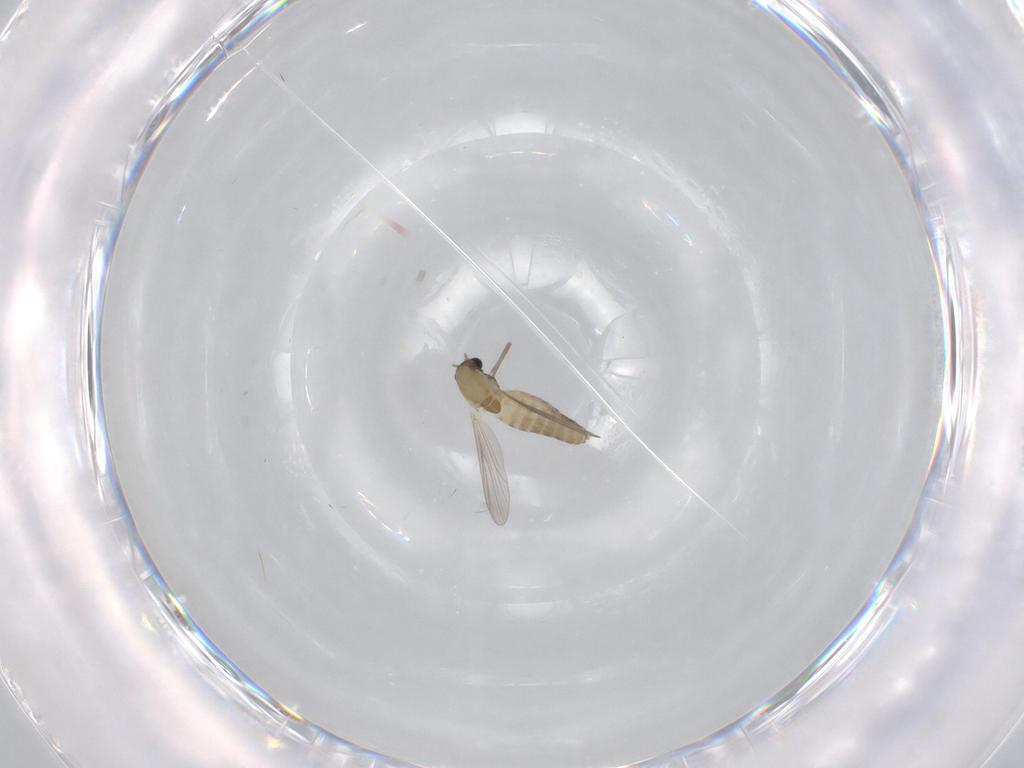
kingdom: Animalia
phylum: Arthropoda
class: Insecta
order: Diptera
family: Chironomidae
